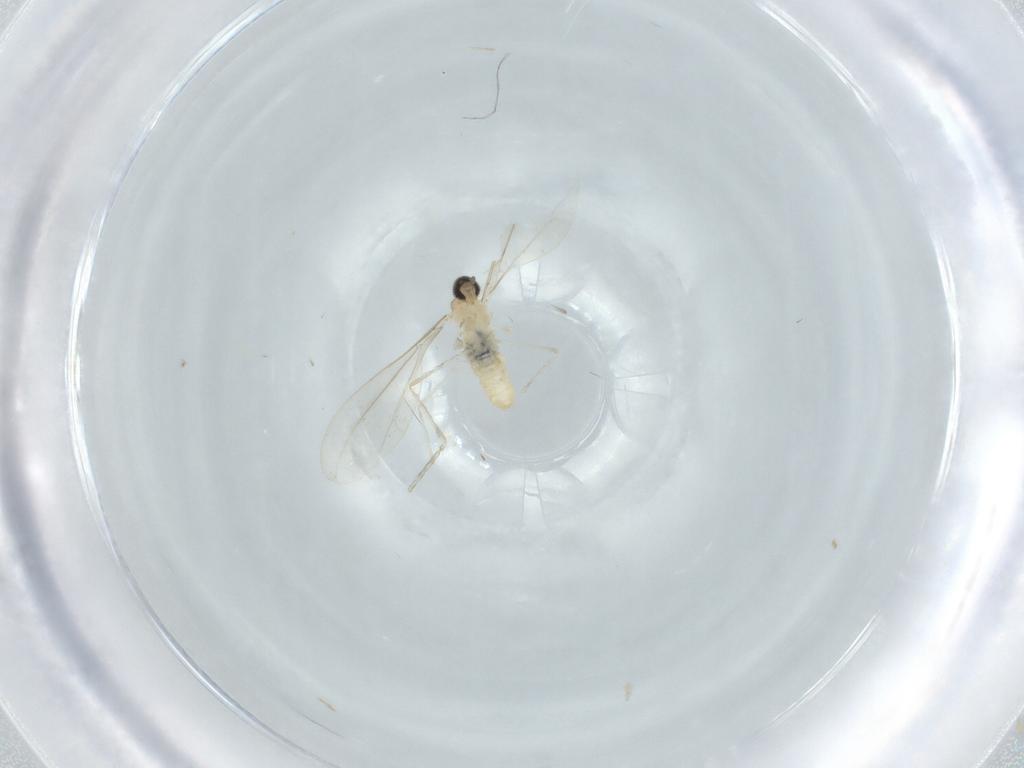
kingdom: Animalia
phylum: Arthropoda
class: Insecta
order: Diptera
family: Cecidomyiidae
